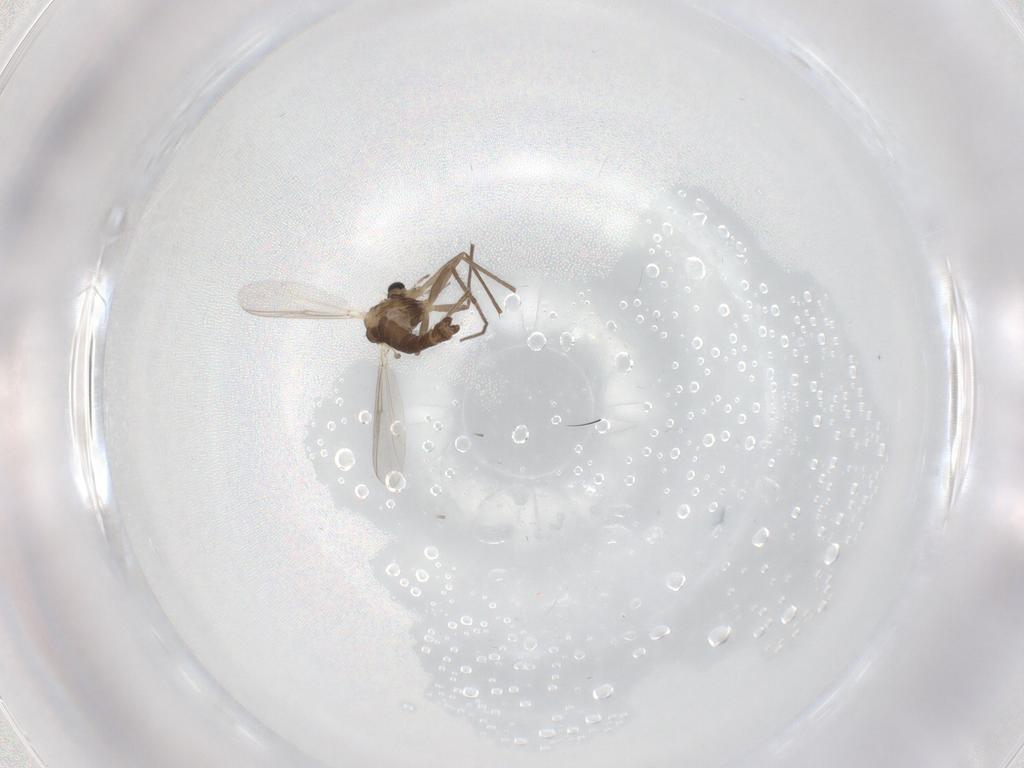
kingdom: Animalia
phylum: Arthropoda
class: Insecta
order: Diptera
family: Chironomidae
